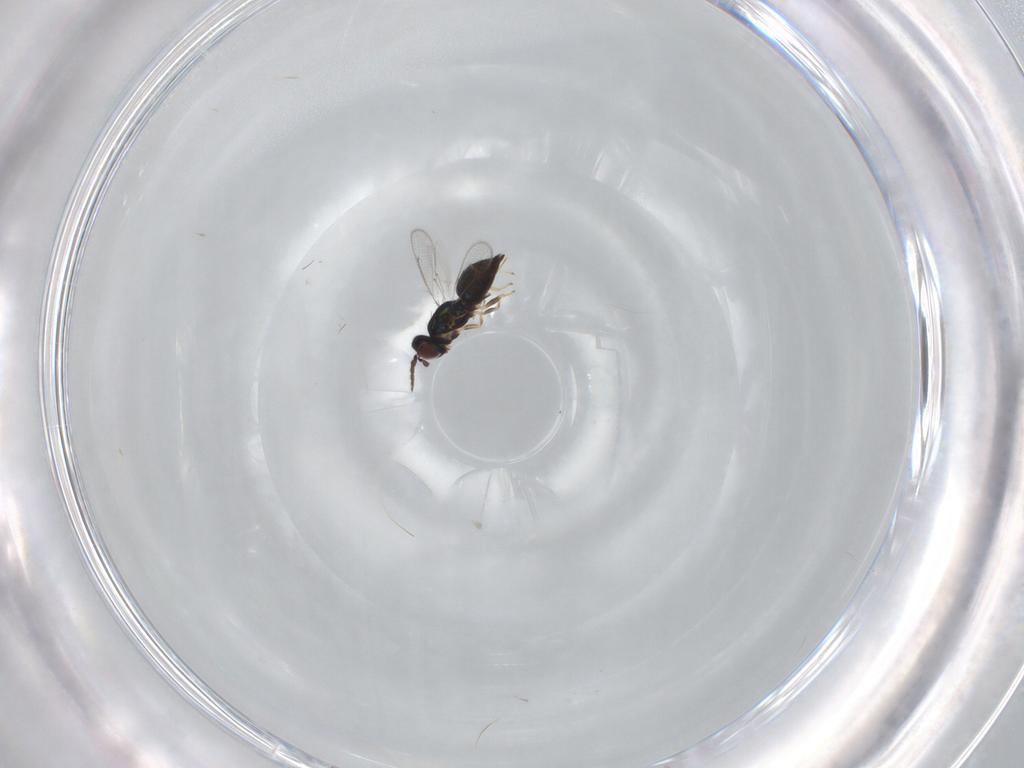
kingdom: Animalia
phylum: Arthropoda
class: Insecta
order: Hymenoptera
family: Eulophidae
